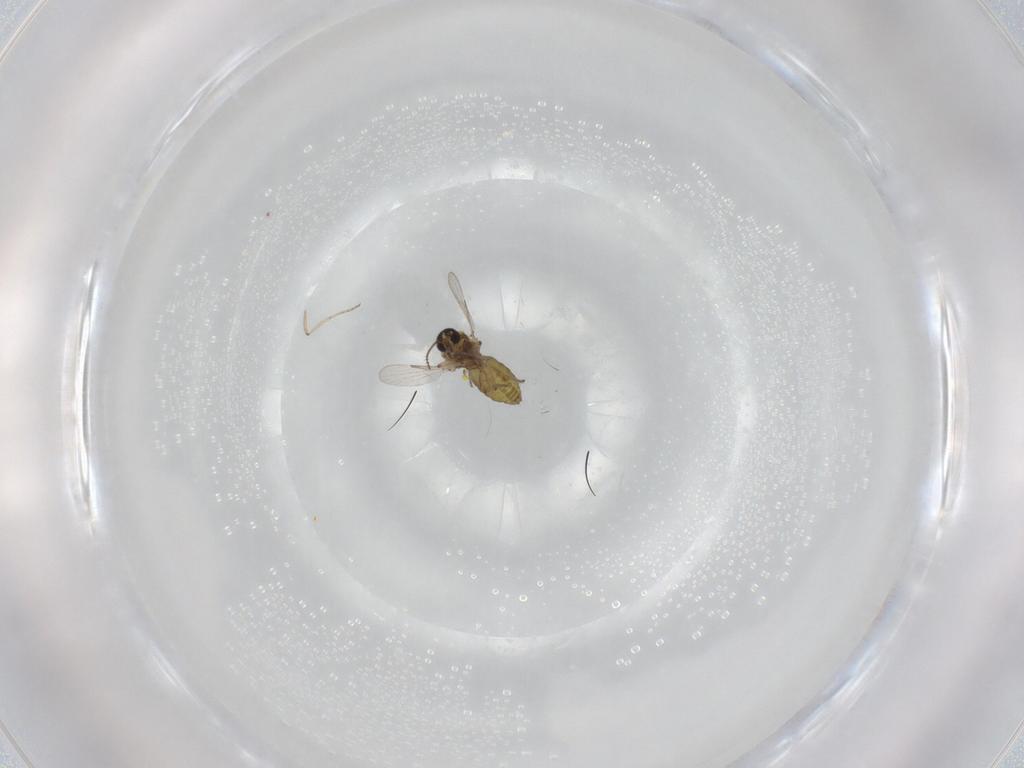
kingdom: Animalia
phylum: Arthropoda
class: Insecta
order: Diptera
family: Ceratopogonidae
